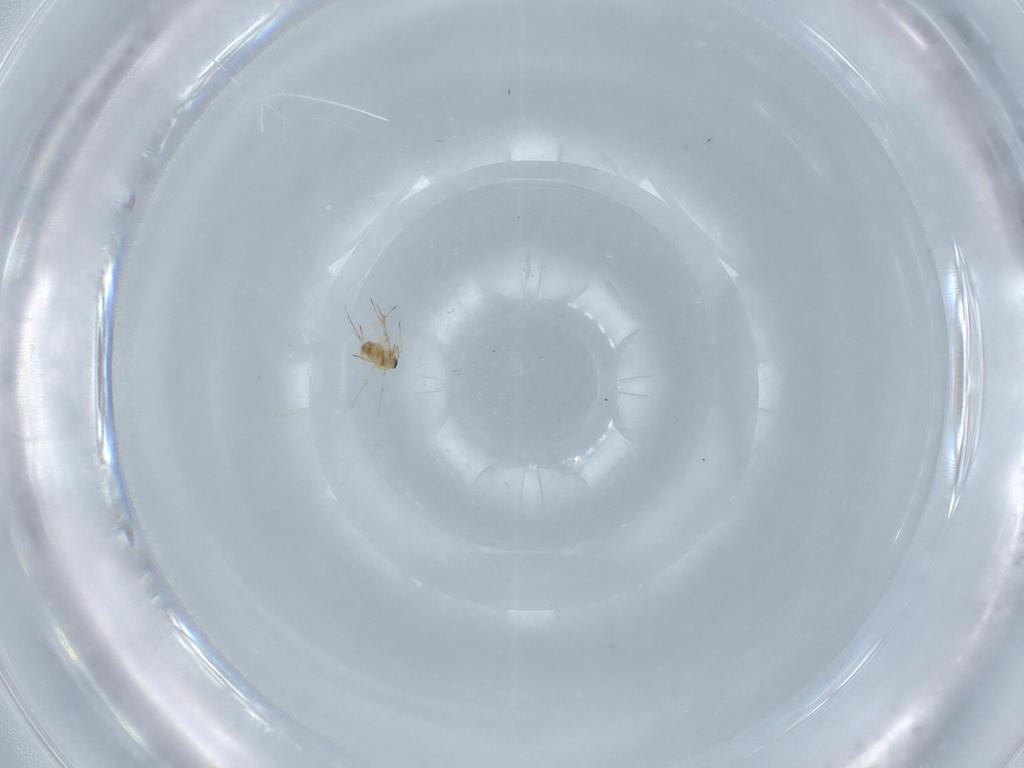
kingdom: Animalia
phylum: Arthropoda
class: Insecta
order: Hymenoptera
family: Trichogrammatidae
